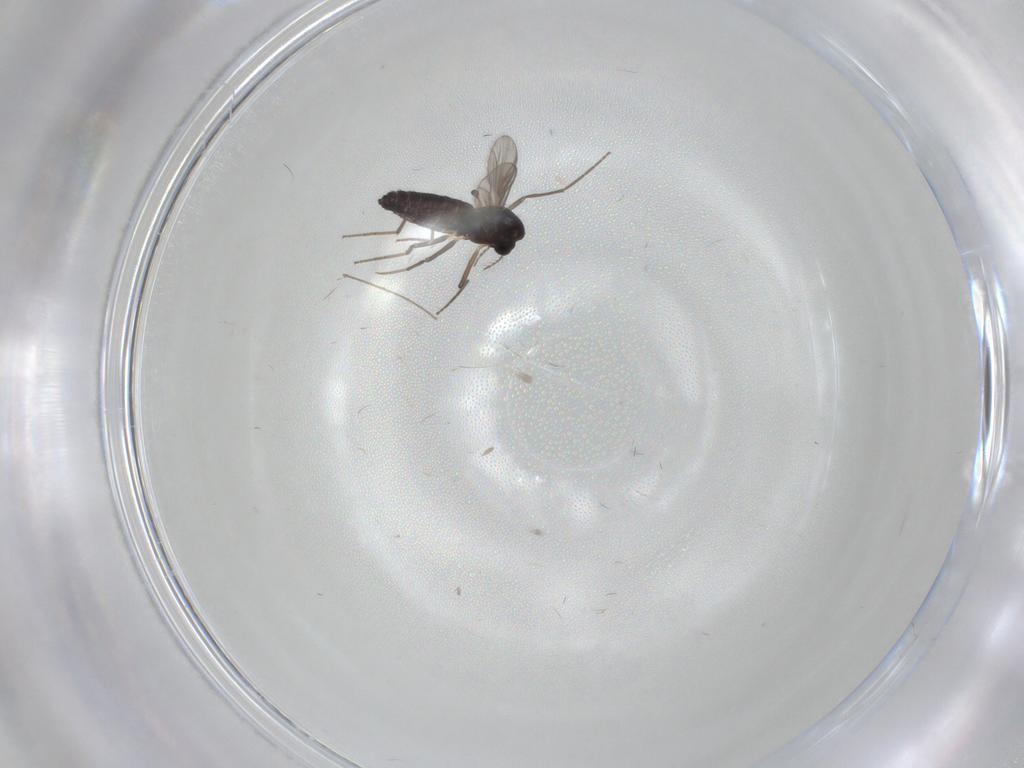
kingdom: Animalia
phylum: Arthropoda
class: Insecta
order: Diptera
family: Chironomidae
